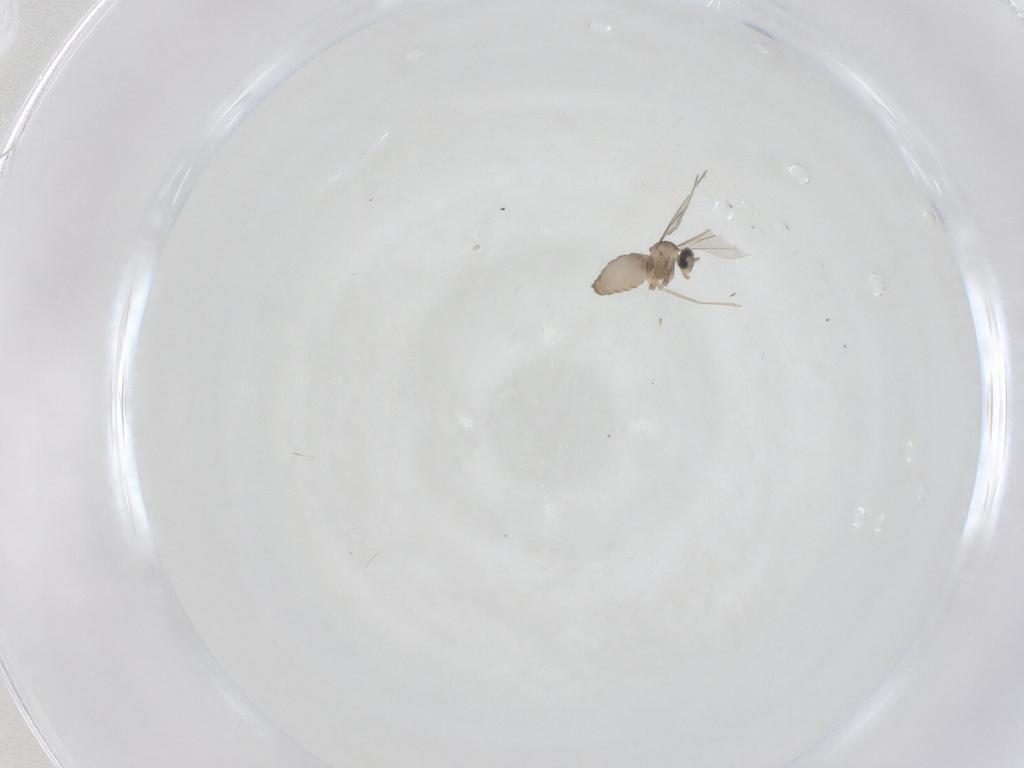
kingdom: Animalia
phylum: Arthropoda
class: Insecta
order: Diptera
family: Cecidomyiidae
